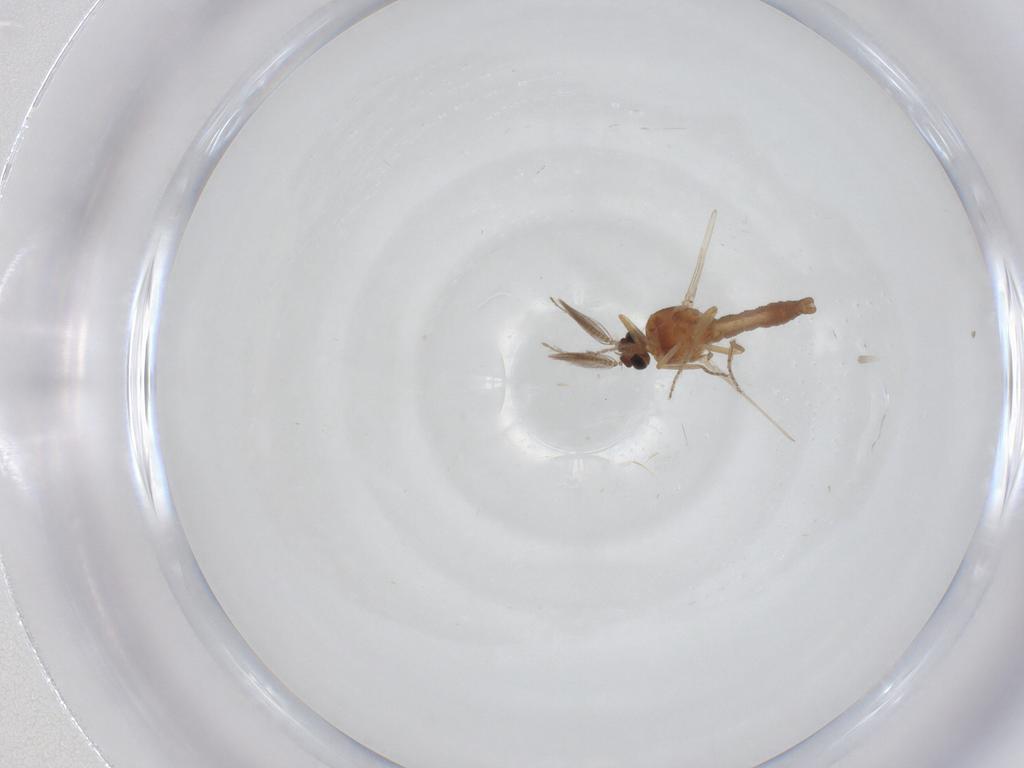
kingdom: Animalia
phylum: Arthropoda
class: Insecta
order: Diptera
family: Ceratopogonidae
